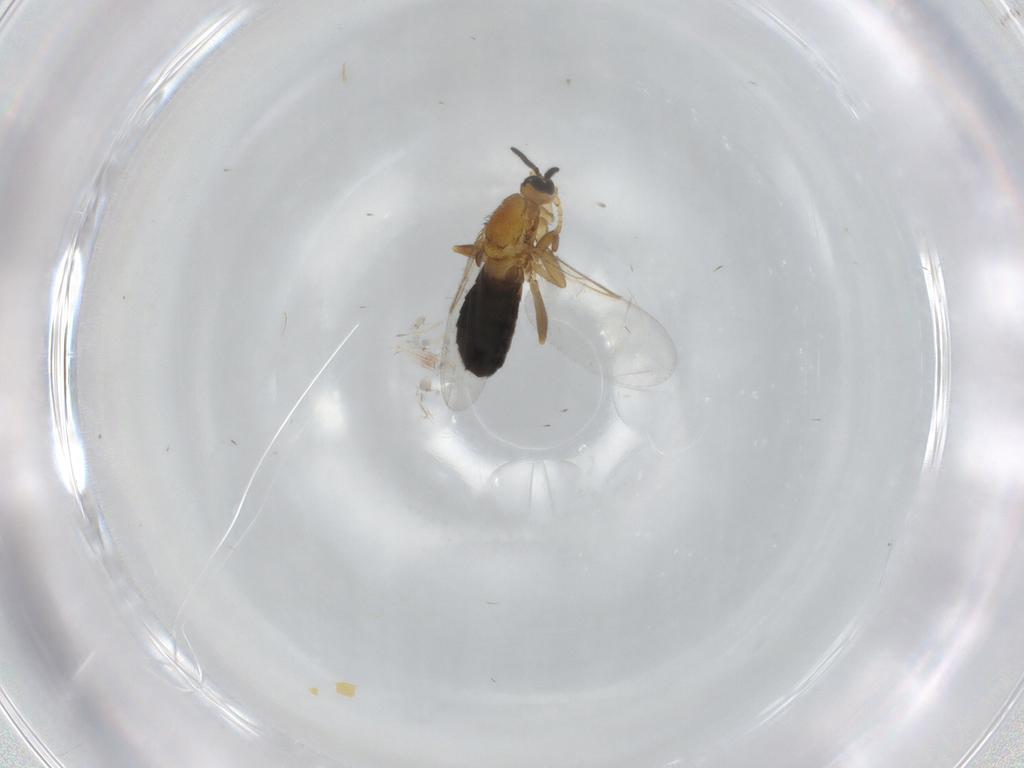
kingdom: Animalia
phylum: Arthropoda
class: Insecta
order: Diptera
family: Scatopsidae
